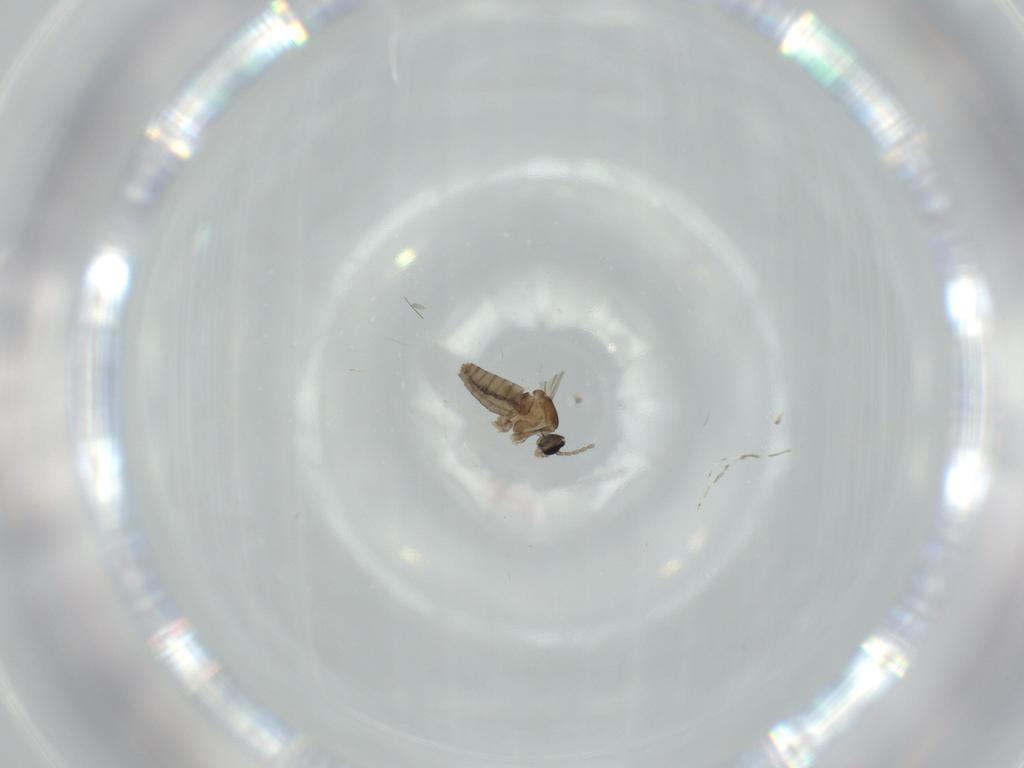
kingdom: Animalia
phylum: Arthropoda
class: Insecta
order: Diptera
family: Cecidomyiidae
